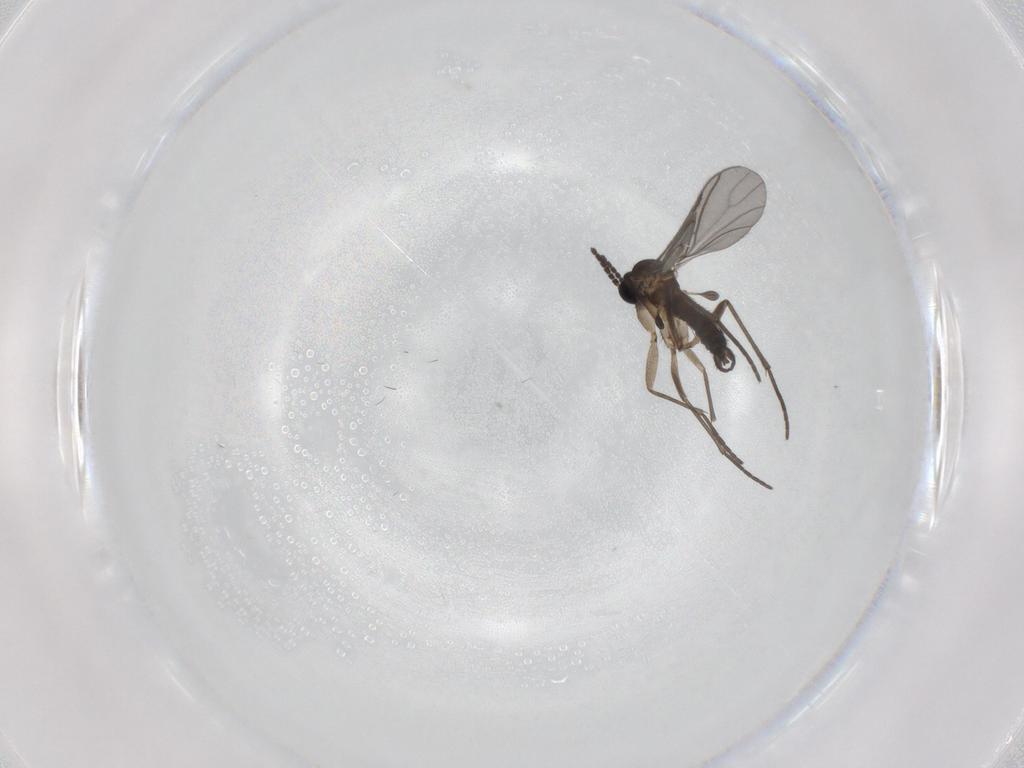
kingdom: Animalia
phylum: Arthropoda
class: Insecta
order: Diptera
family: Sciaridae
